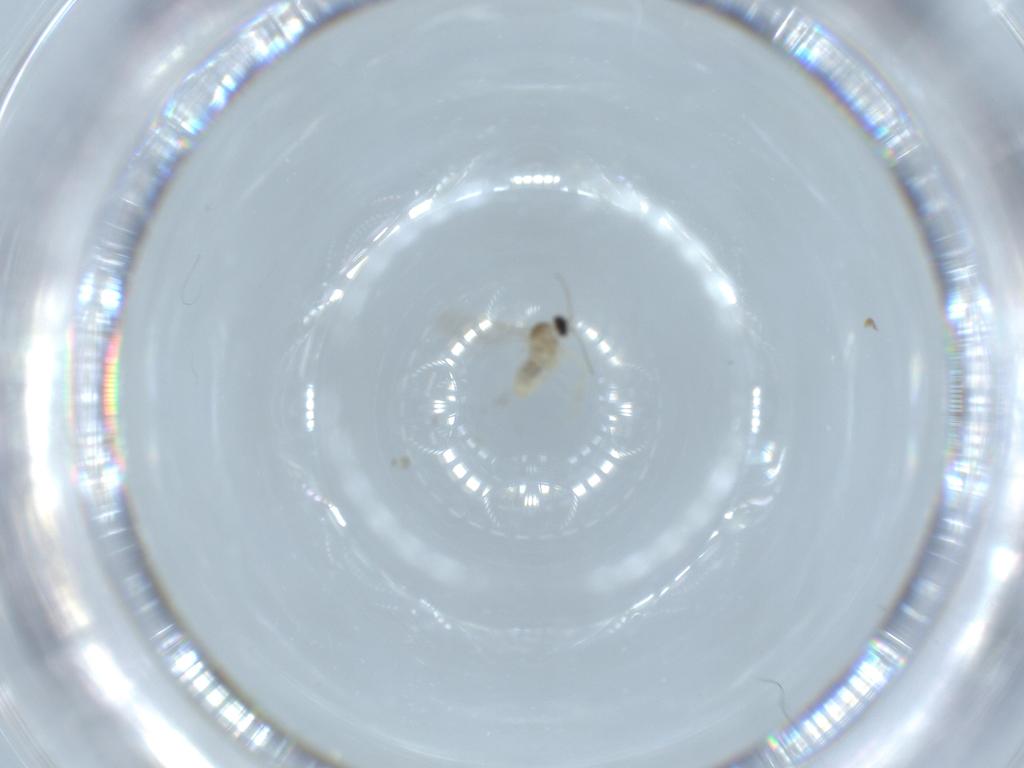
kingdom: Animalia
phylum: Arthropoda
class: Insecta
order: Diptera
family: Cecidomyiidae
